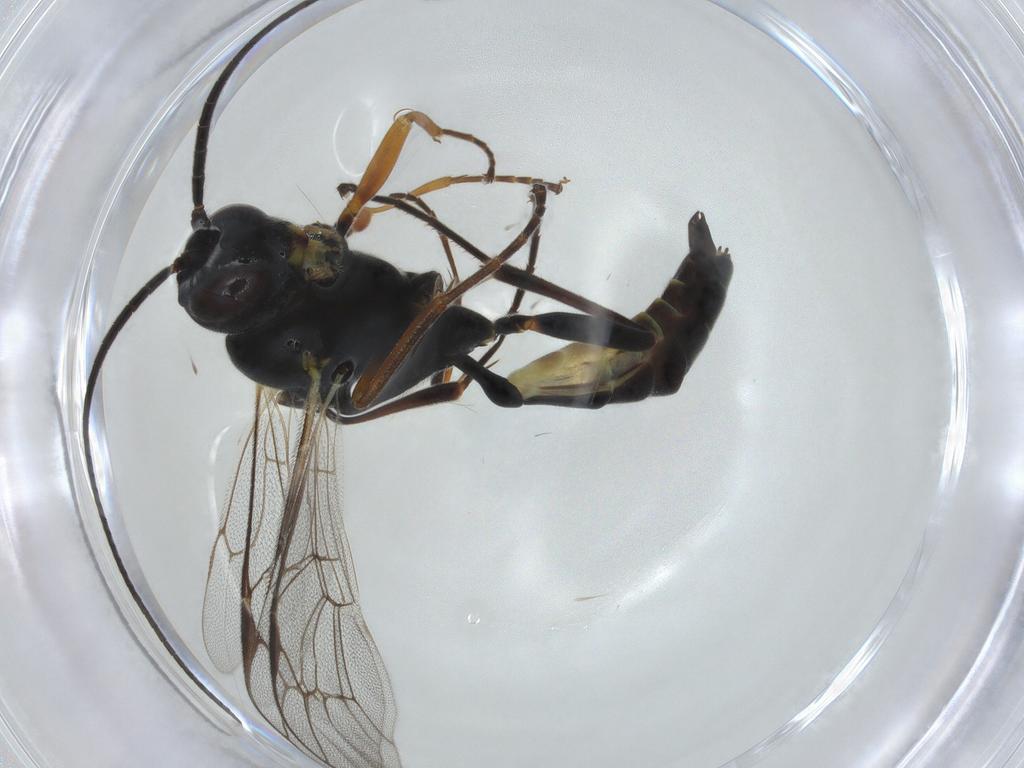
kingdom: Animalia
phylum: Arthropoda
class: Insecta
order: Hymenoptera
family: Ichneumonidae
